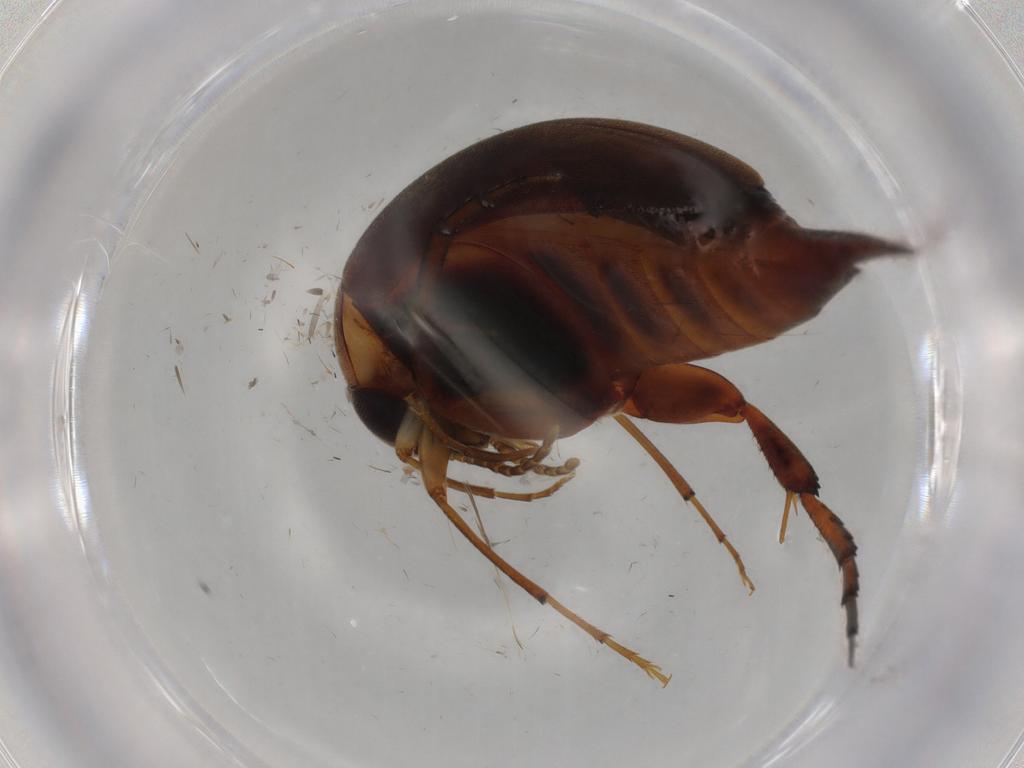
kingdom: Animalia
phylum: Arthropoda
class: Insecta
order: Coleoptera
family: Mordellidae
